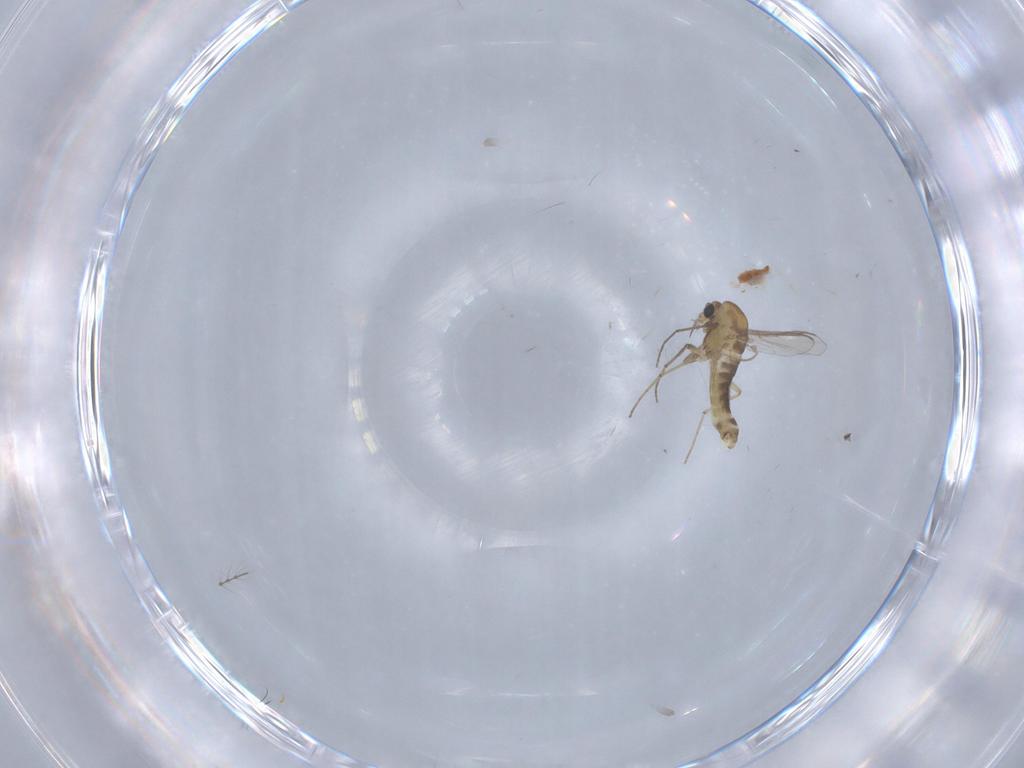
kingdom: Animalia
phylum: Arthropoda
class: Insecta
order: Diptera
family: Chironomidae
